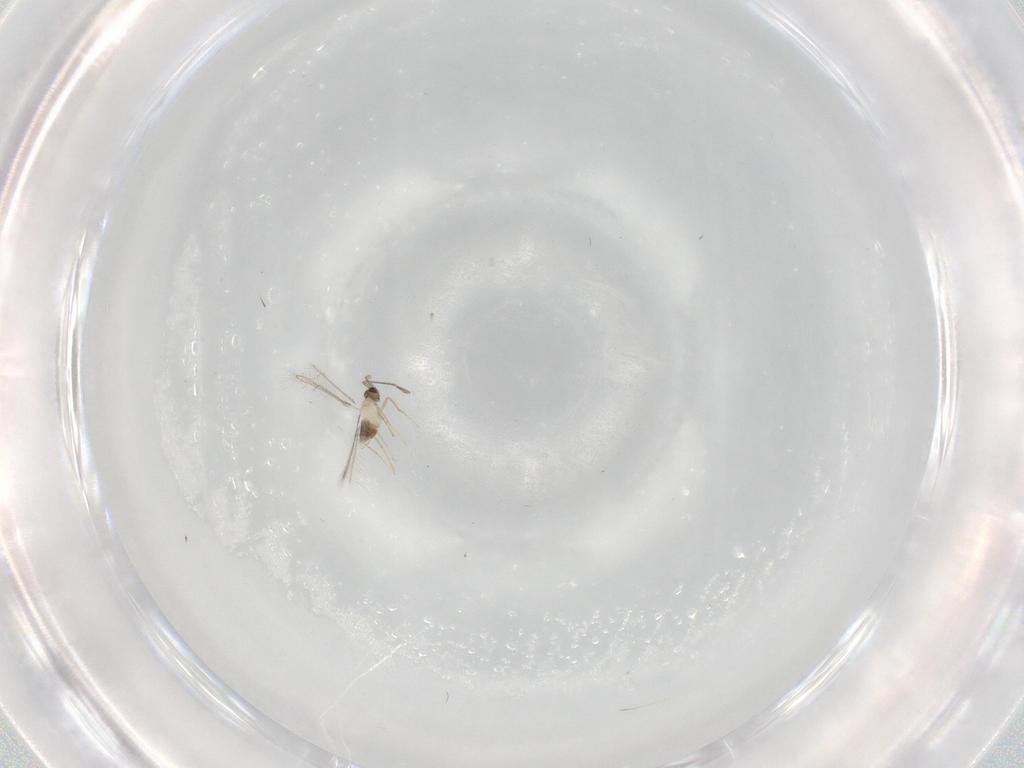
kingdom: Animalia
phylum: Arthropoda
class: Insecta
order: Hymenoptera
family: Mymaridae
